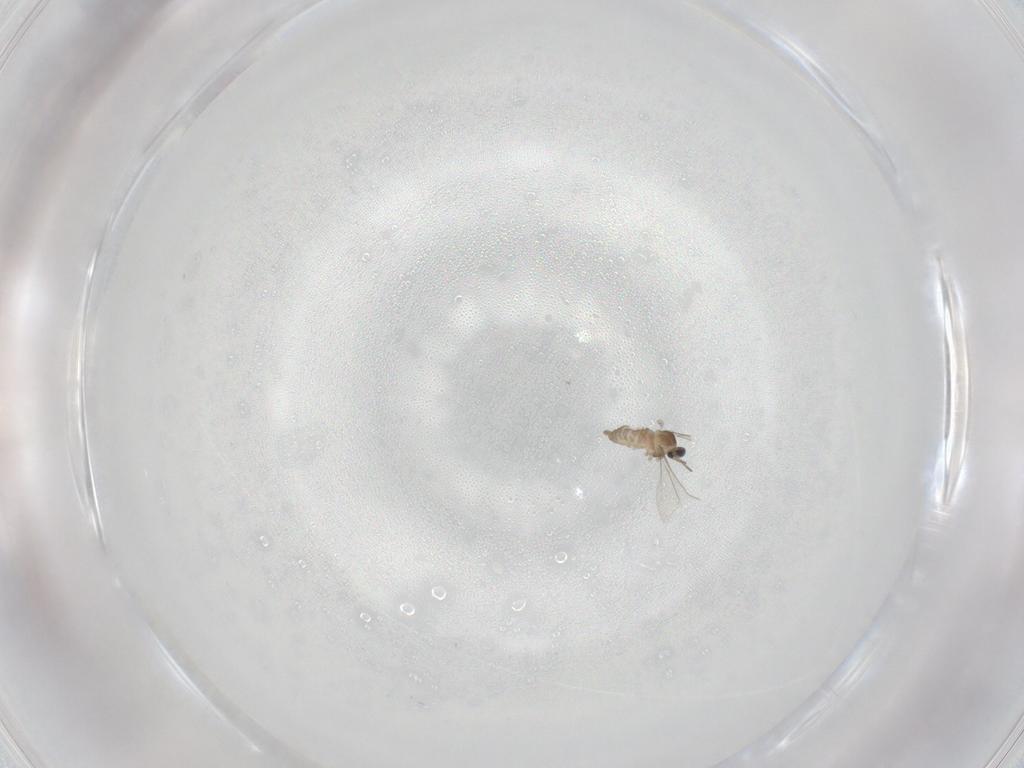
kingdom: Animalia
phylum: Arthropoda
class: Insecta
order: Diptera
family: Cecidomyiidae
